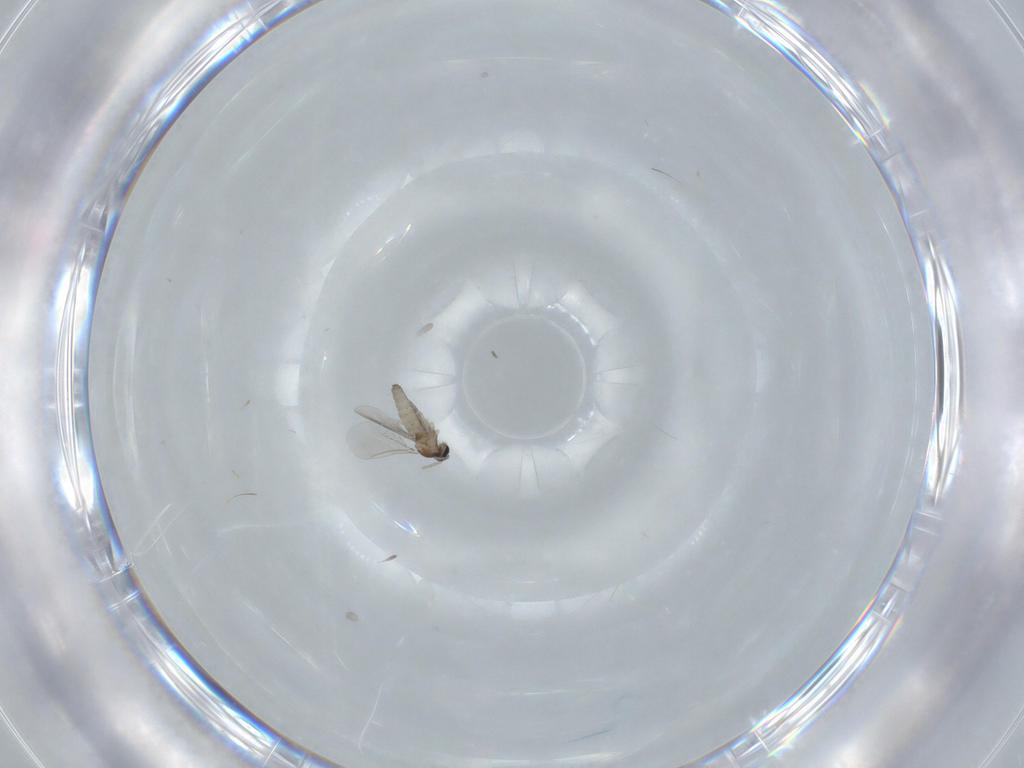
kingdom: Animalia
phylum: Arthropoda
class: Insecta
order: Diptera
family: Cecidomyiidae
